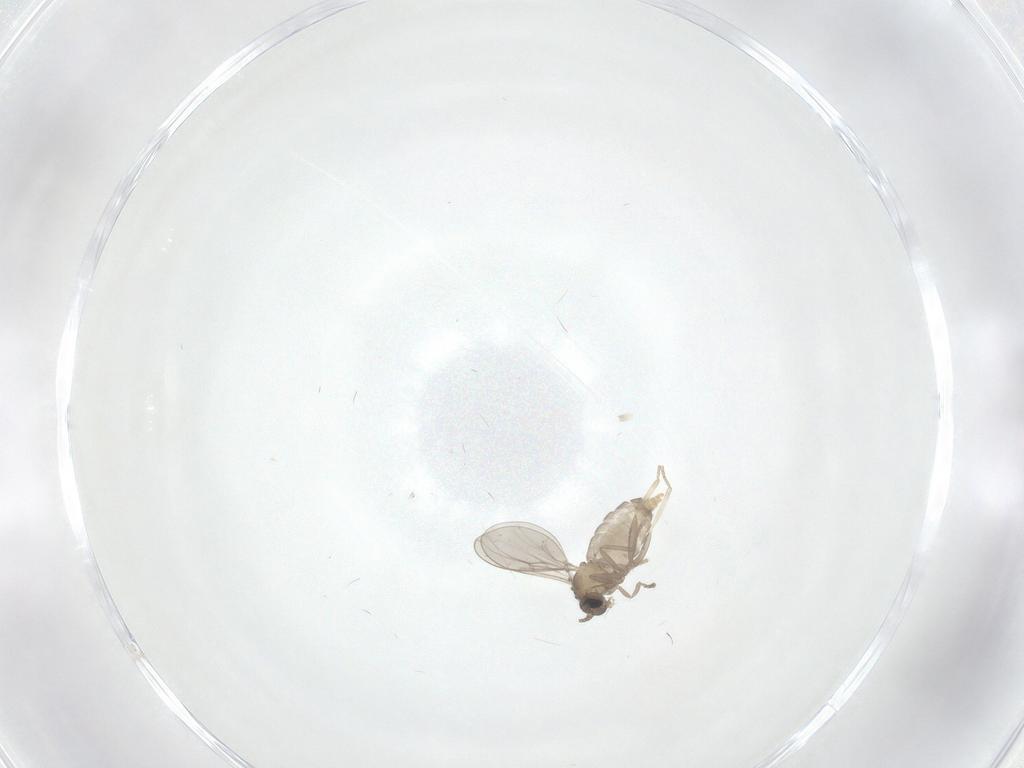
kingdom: Animalia
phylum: Arthropoda
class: Insecta
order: Diptera
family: Cecidomyiidae
